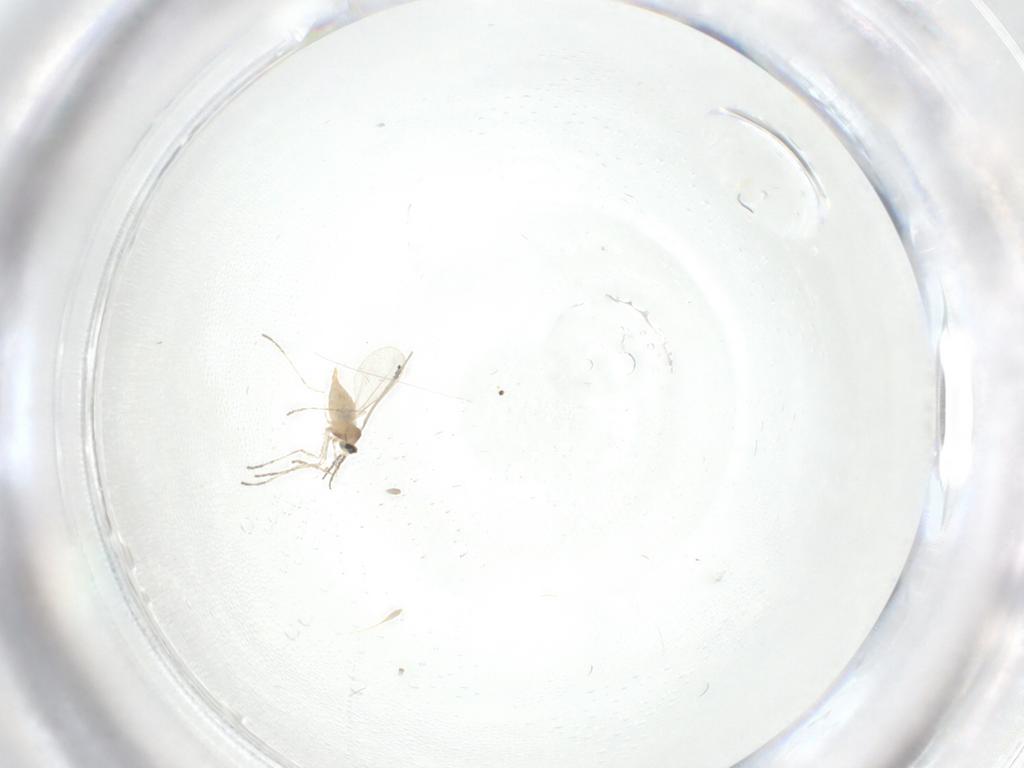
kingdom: Animalia
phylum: Arthropoda
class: Insecta
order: Diptera
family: Cecidomyiidae
